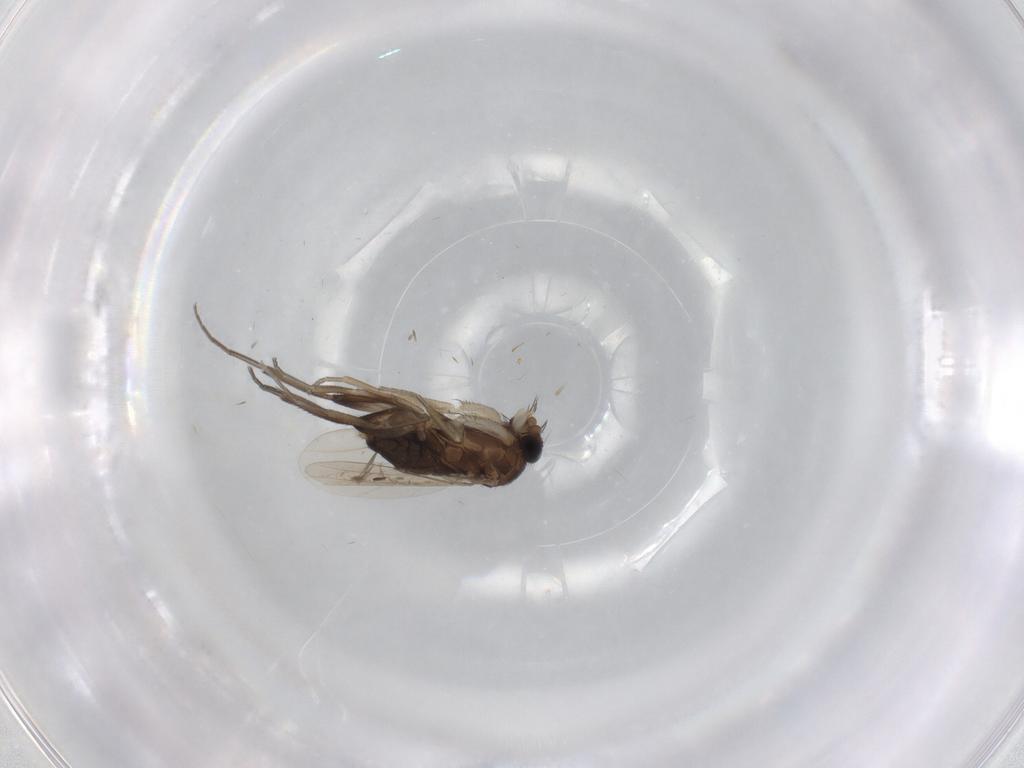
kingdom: Animalia
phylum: Arthropoda
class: Insecta
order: Diptera
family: Phoridae
